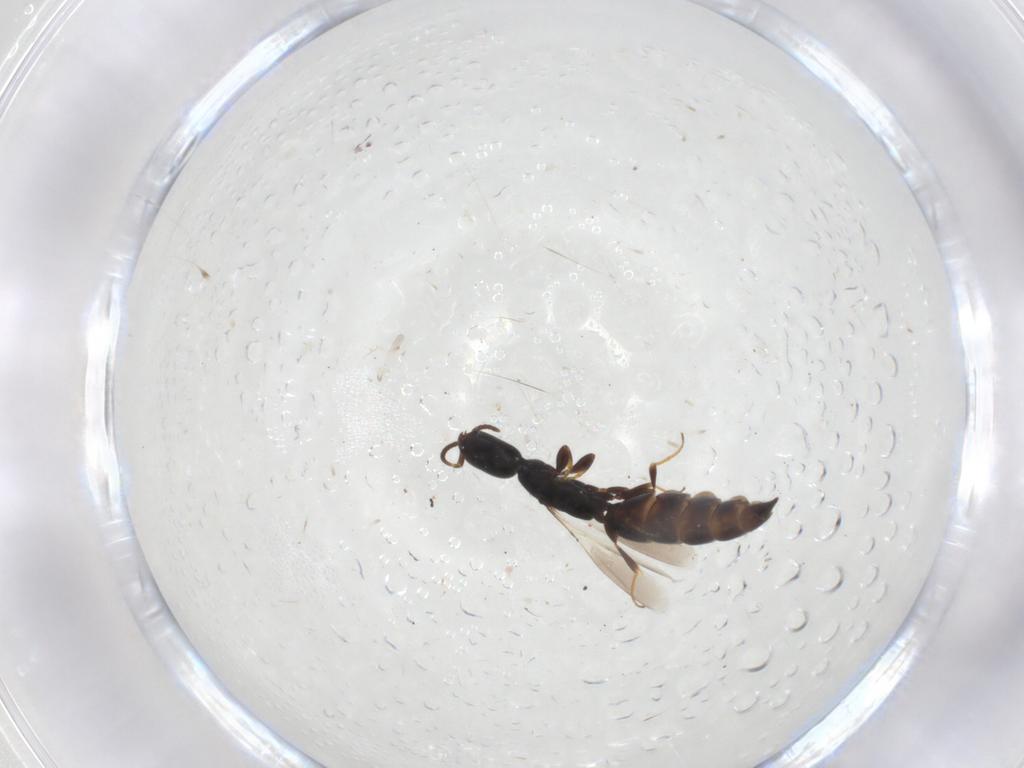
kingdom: Animalia
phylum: Arthropoda
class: Insecta
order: Hymenoptera
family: Bethylidae
